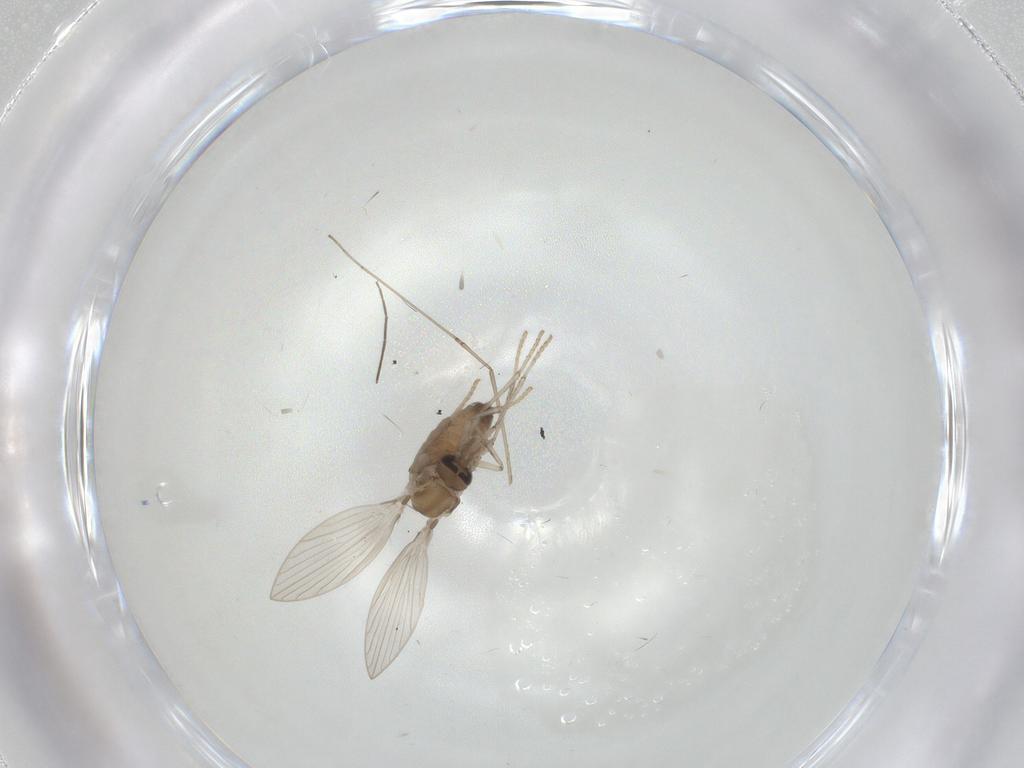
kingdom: Animalia
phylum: Arthropoda
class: Insecta
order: Diptera
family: Psychodidae
